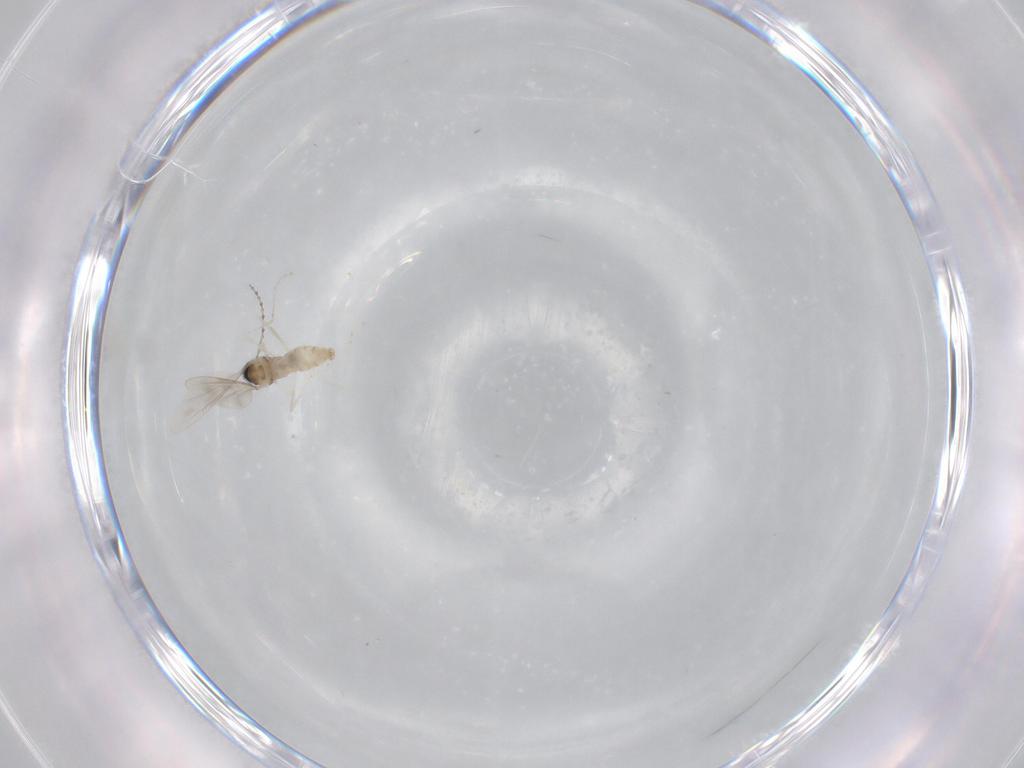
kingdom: Animalia
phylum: Arthropoda
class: Insecta
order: Diptera
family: Cecidomyiidae
